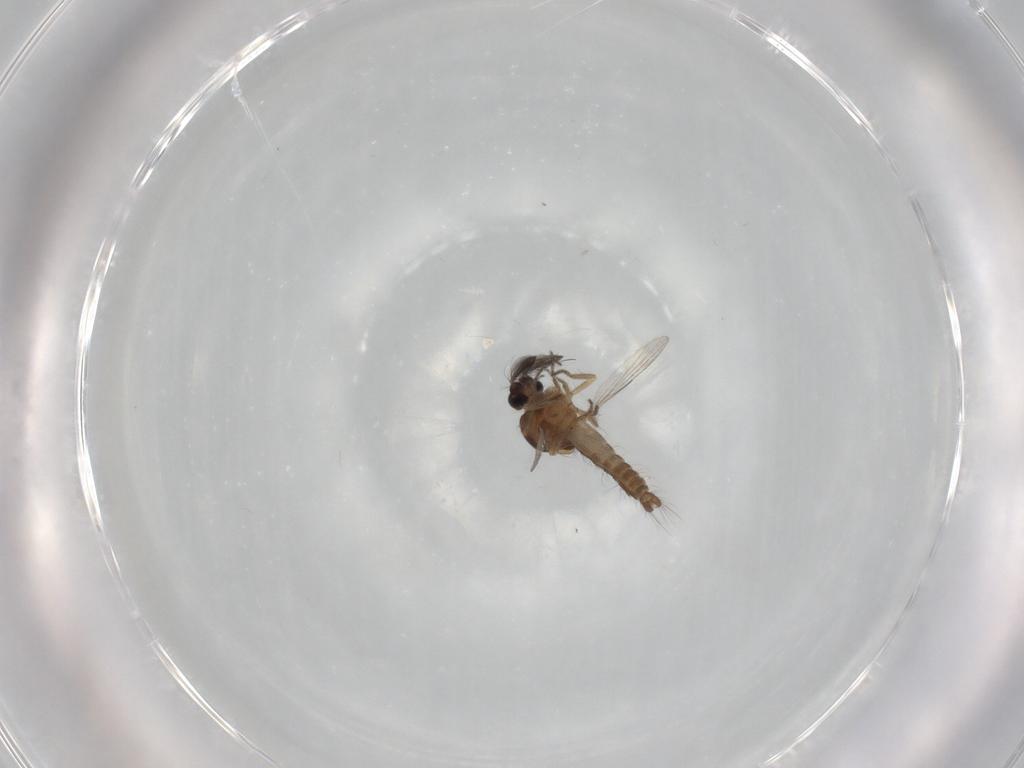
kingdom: Animalia
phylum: Arthropoda
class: Insecta
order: Diptera
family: Ceratopogonidae
